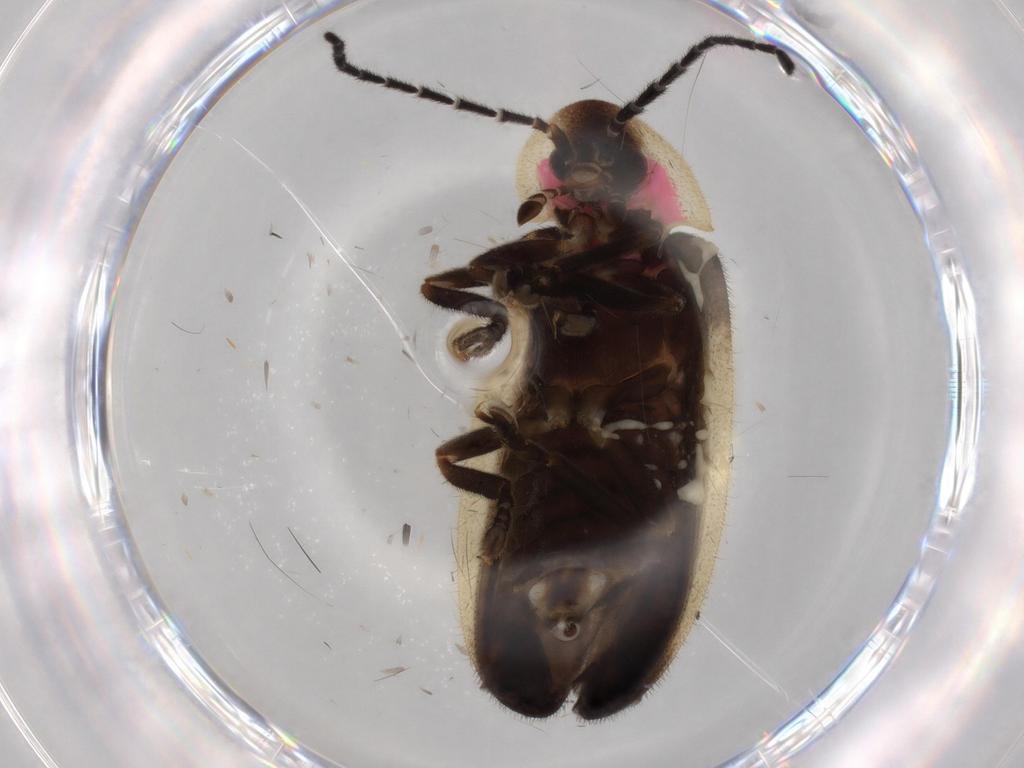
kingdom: Animalia
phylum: Arthropoda
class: Insecta
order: Coleoptera
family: Lampyridae
